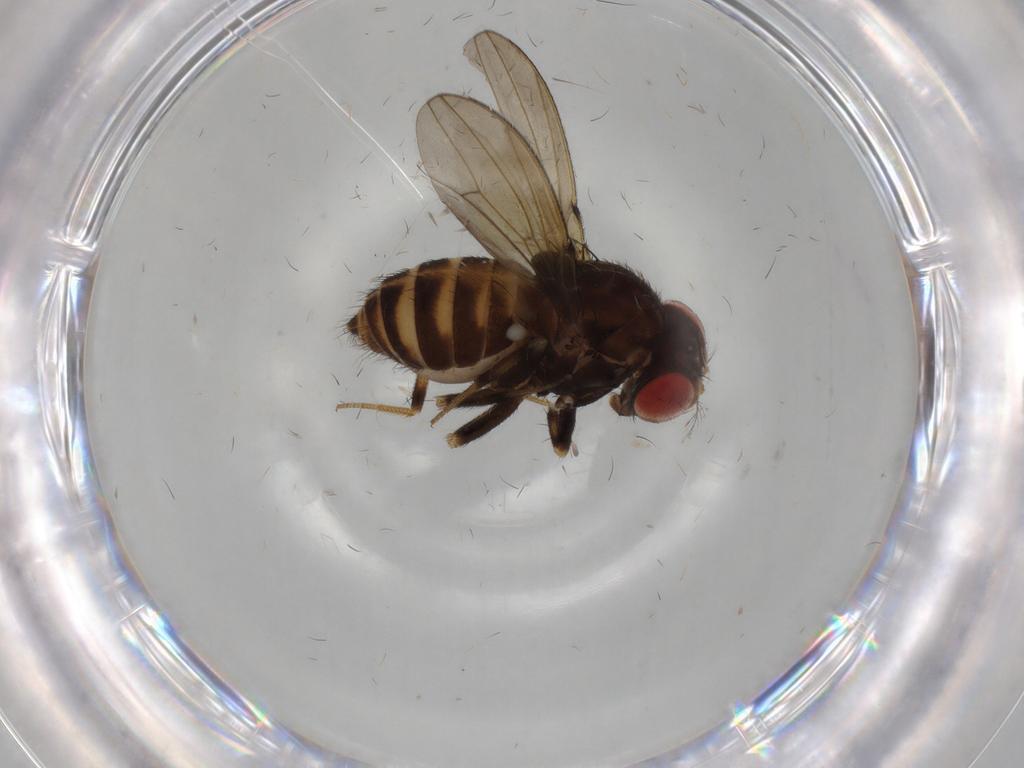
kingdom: Animalia
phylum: Arthropoda
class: Insecta
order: Diptera
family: Drosophilidae
